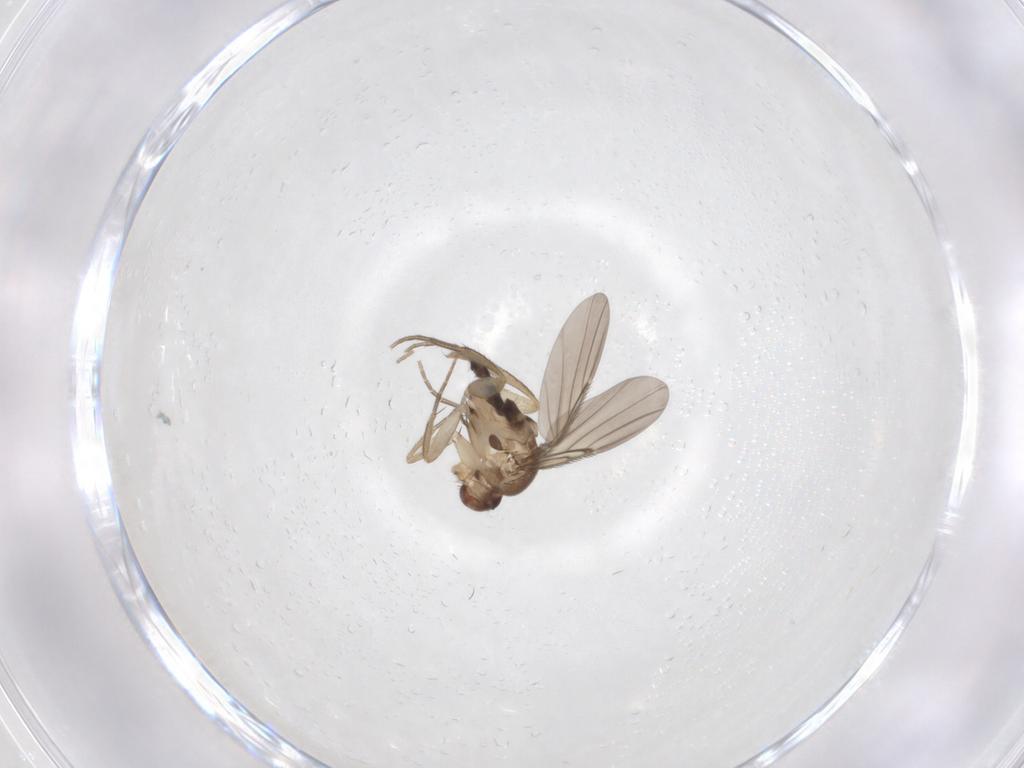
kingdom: Animalia
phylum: Arthropoda
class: Insecta
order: Diptera
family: Phoridae
